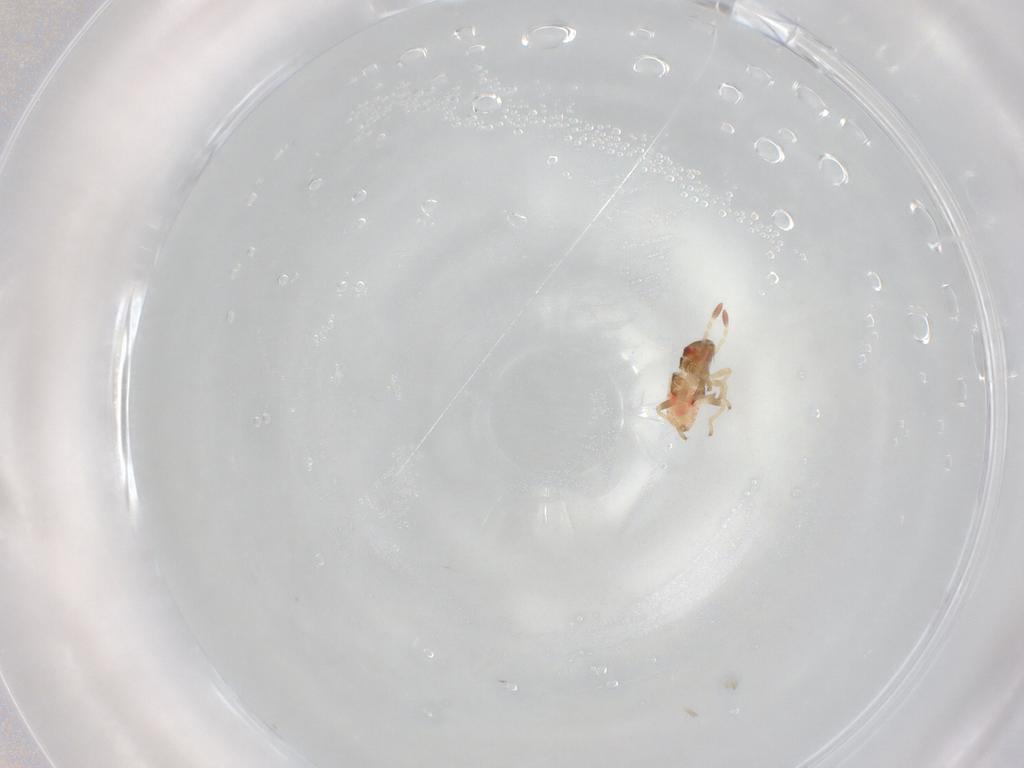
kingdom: Animalia
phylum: Arthropoda
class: Insecta
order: Hemiptera
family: Lygaeidae
